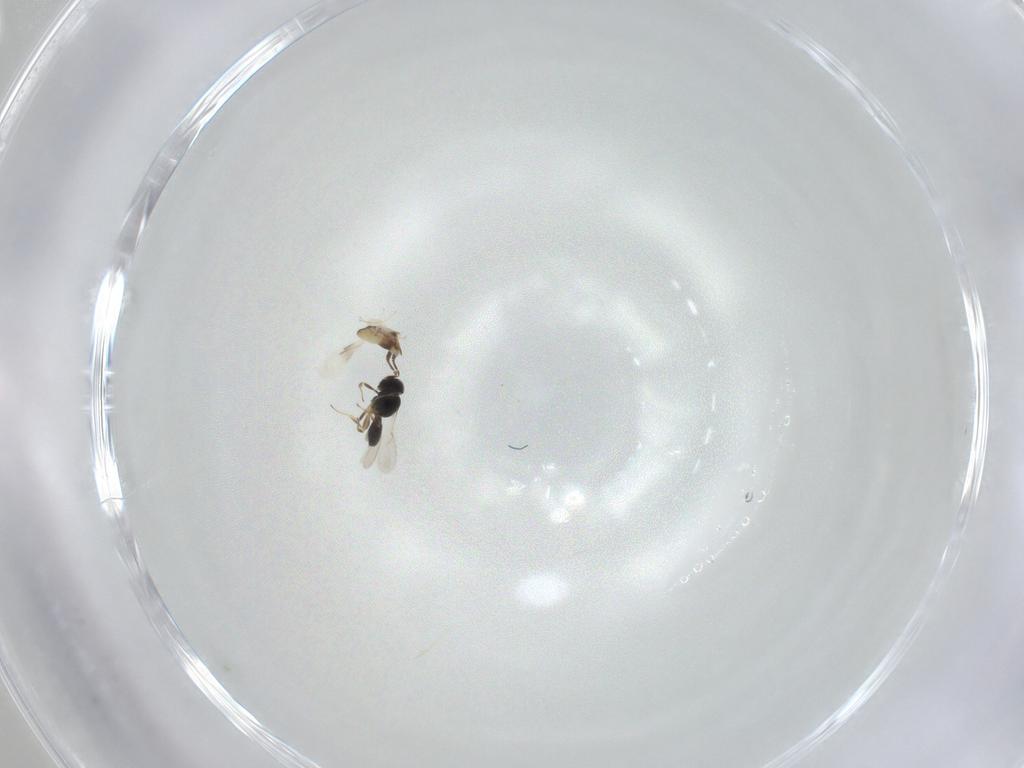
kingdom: Animalia
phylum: Arthropoda
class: Insecta
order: Hymenoptera
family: Scelionidae
